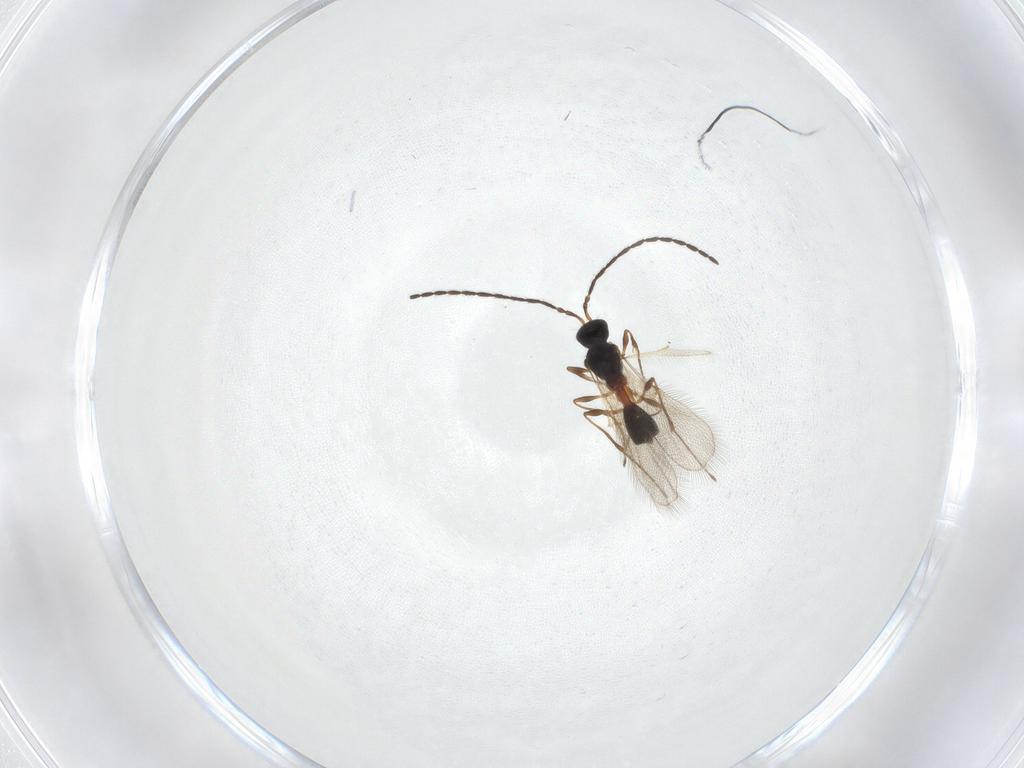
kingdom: Animalia
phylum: Arthropoda
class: Insecta
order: Hymenoptera
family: Diapriidae
